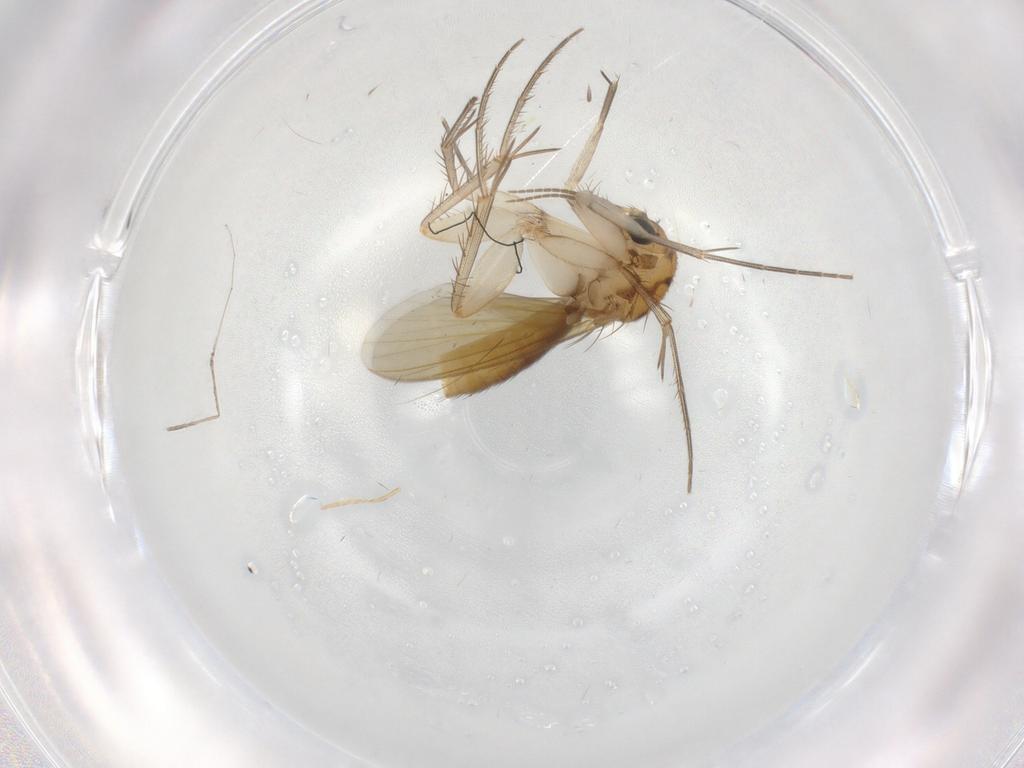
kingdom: Animalia
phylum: Arthropoda
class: Insecta
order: Diptera
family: Mycetophilidae
